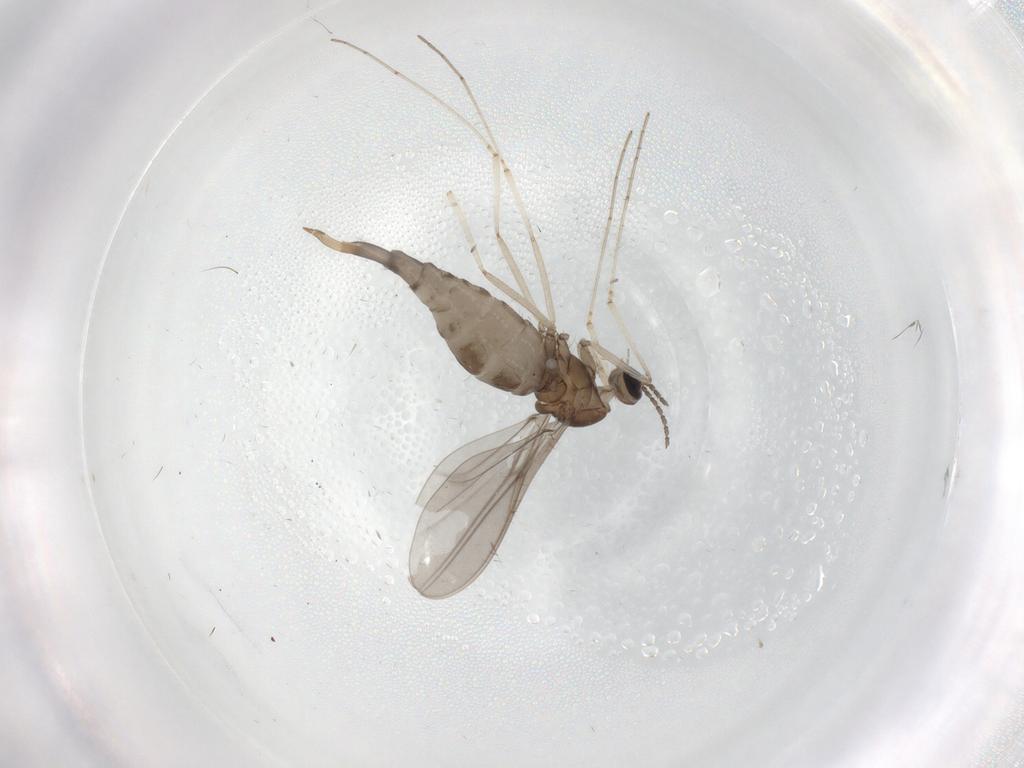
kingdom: Animalia
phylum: Arthropoda
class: Insecta
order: Diptera
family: Cecidomyiidae
